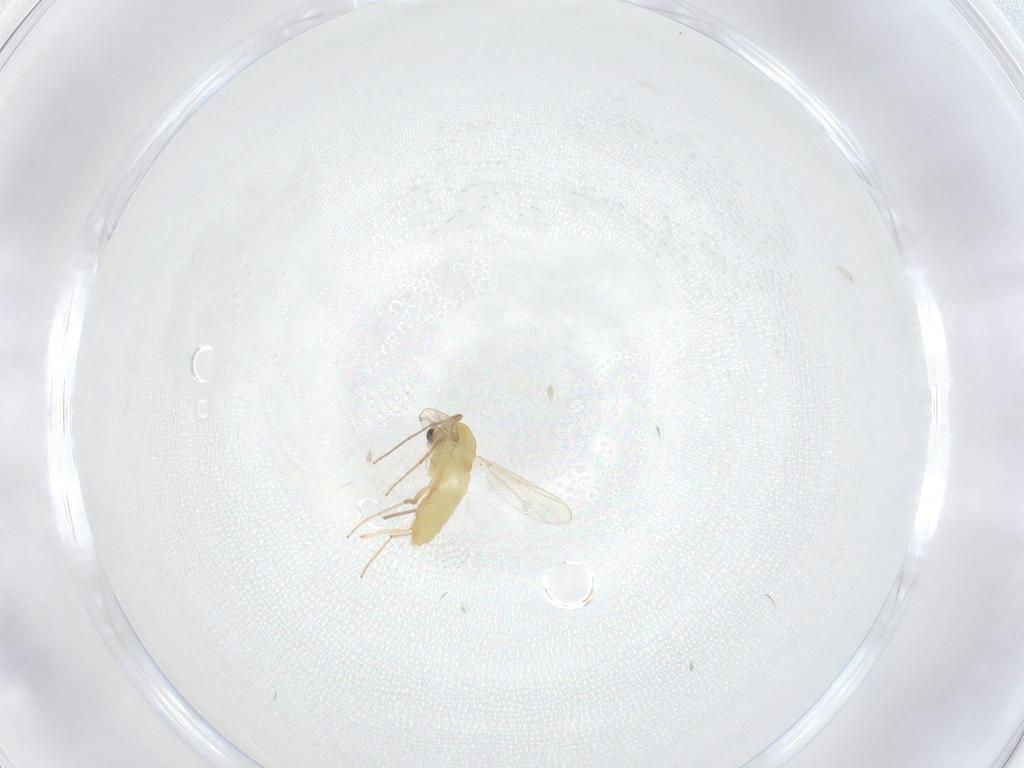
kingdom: Animalia
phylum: Arthropoda
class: Insecta
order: Diptera
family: Chironomidae
